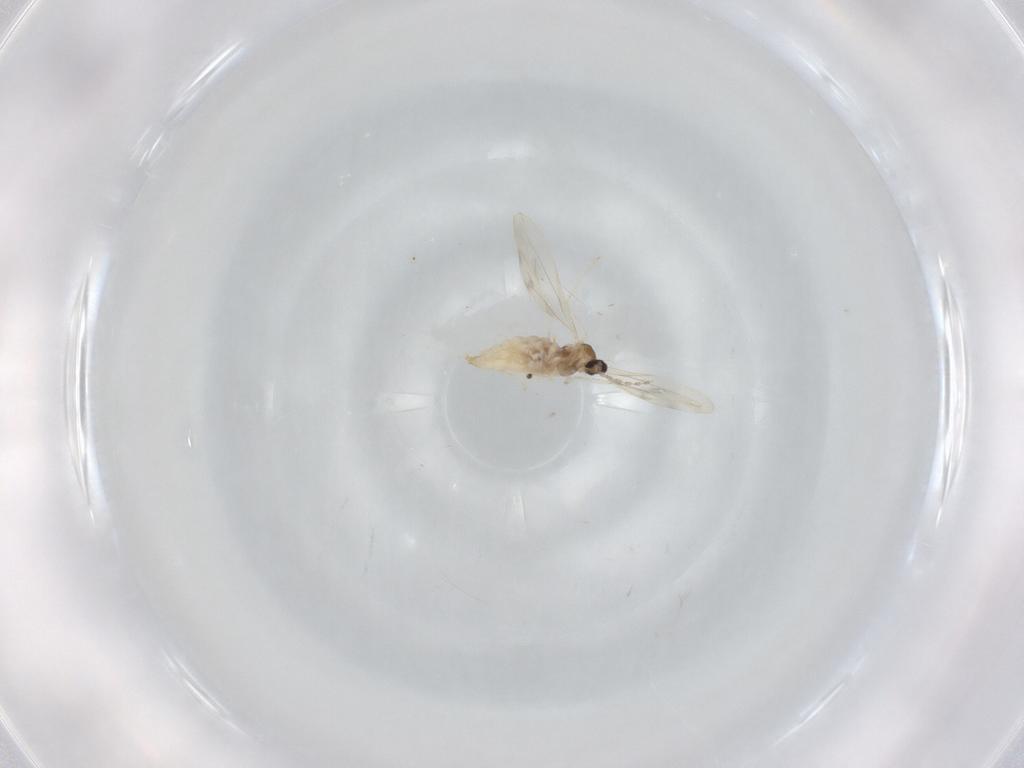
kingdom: Animalia
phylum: Arthropoda
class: Insecta
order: Diptera
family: Cecidomyiidae
